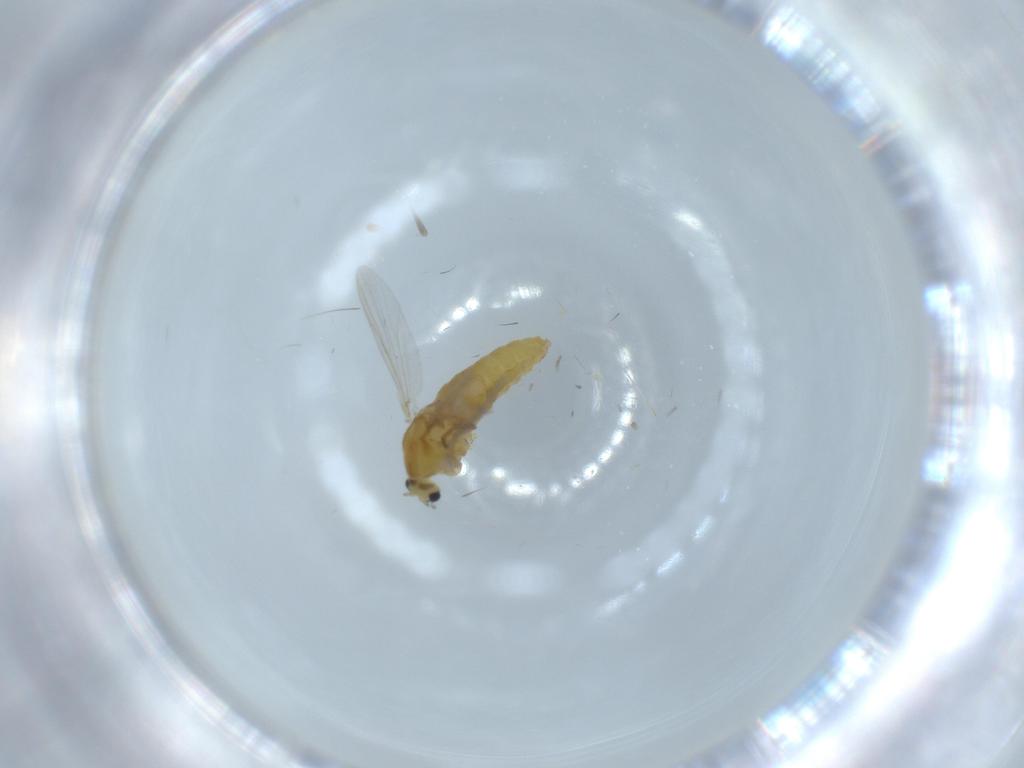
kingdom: Animalia
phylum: Arthropoda
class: Insecta
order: Diptera
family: Chironomidae
